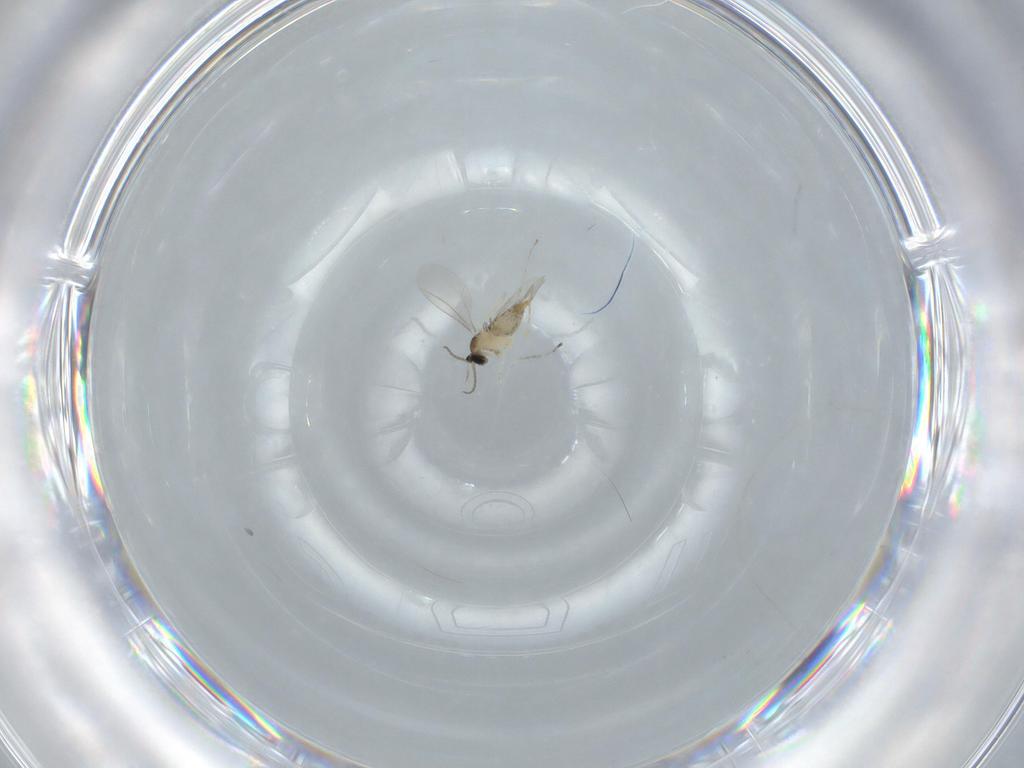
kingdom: Animalia
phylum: Arthropoda
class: Insecta
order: Diptera
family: Cecidomyiidae
